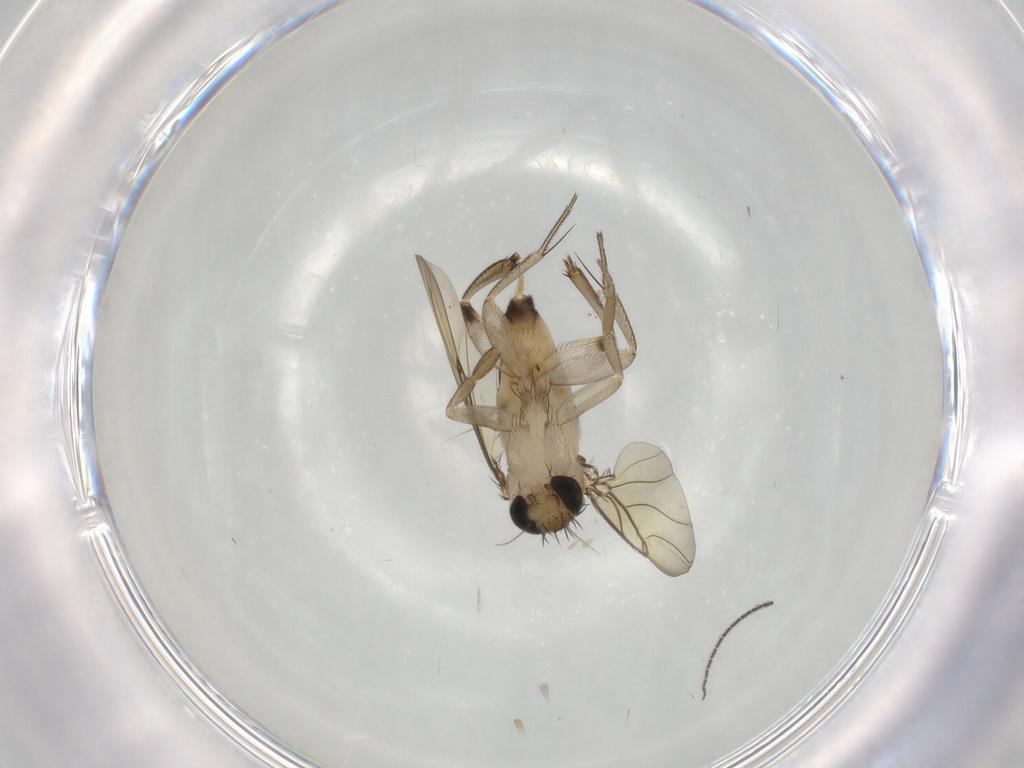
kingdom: Animalia
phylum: Arthropoda
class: Insecta
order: Diptera
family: Phoridae
